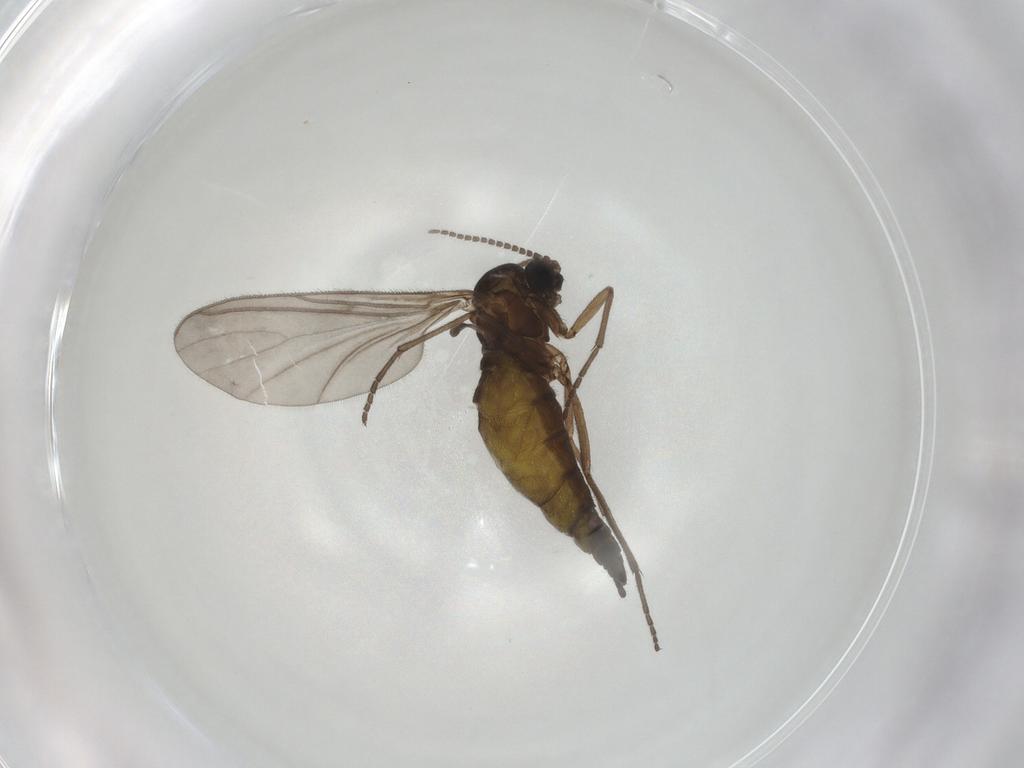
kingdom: Animalia
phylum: Arthropoda
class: Insecta
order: Diptera
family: Sciaridae
